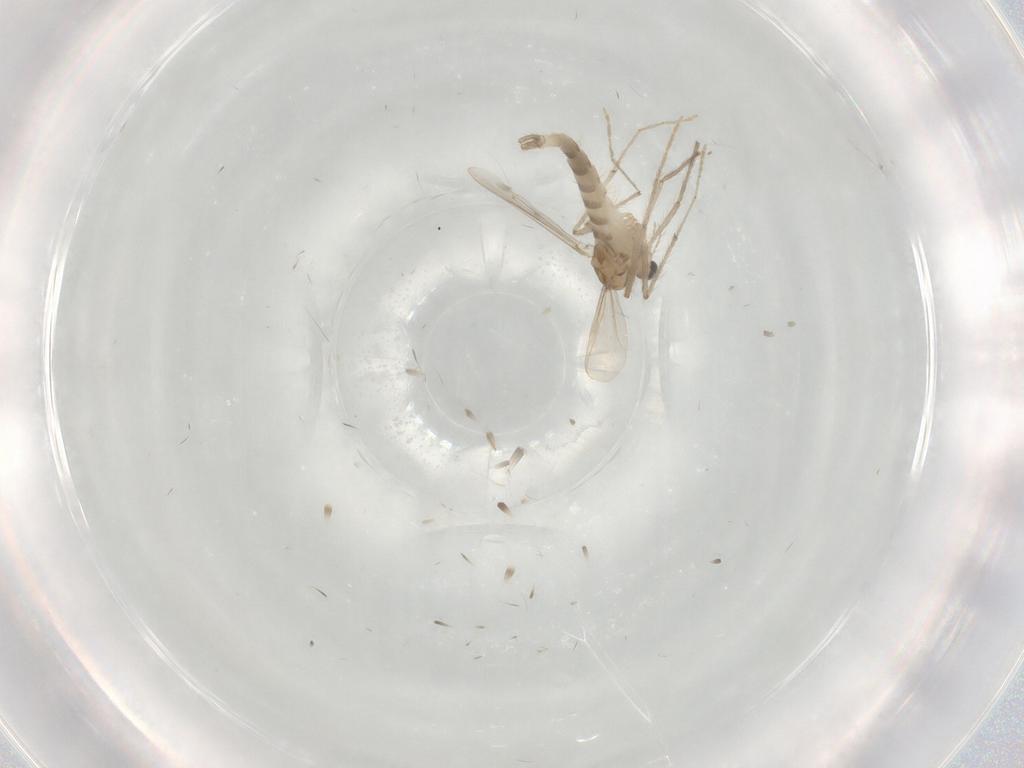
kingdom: Animalia
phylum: Arthropoda
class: Insecta
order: Diptera
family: Chironomidae
